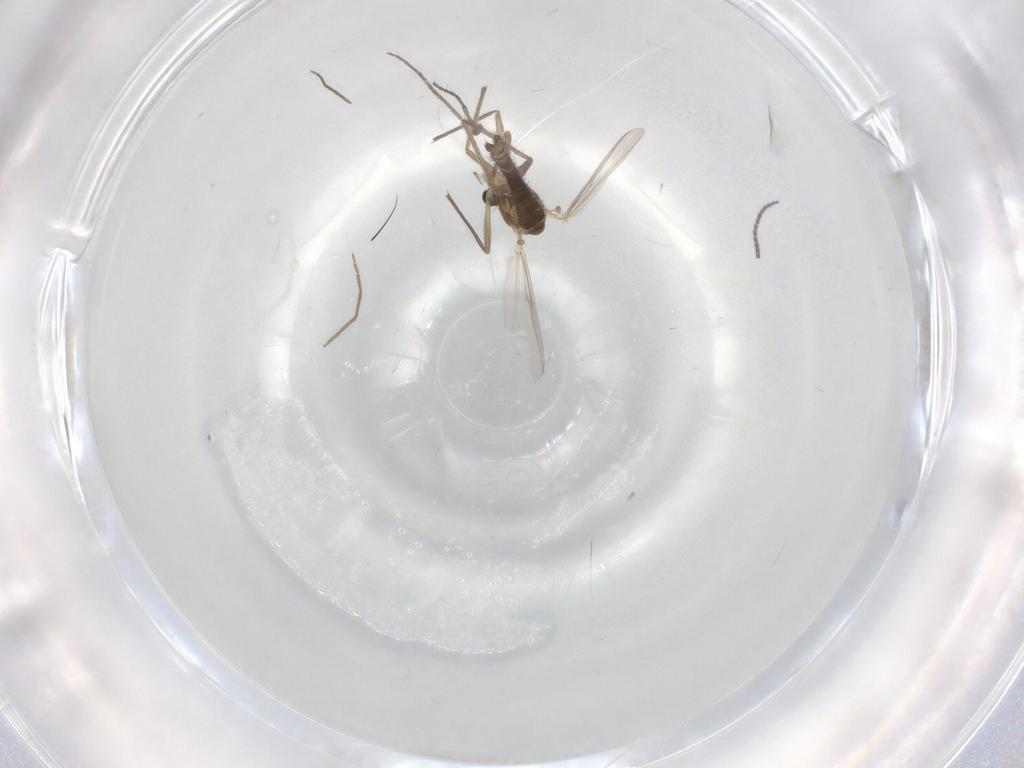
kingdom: Animalia
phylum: Arthropoda
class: Insecta
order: Diptera
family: Chironomidae
